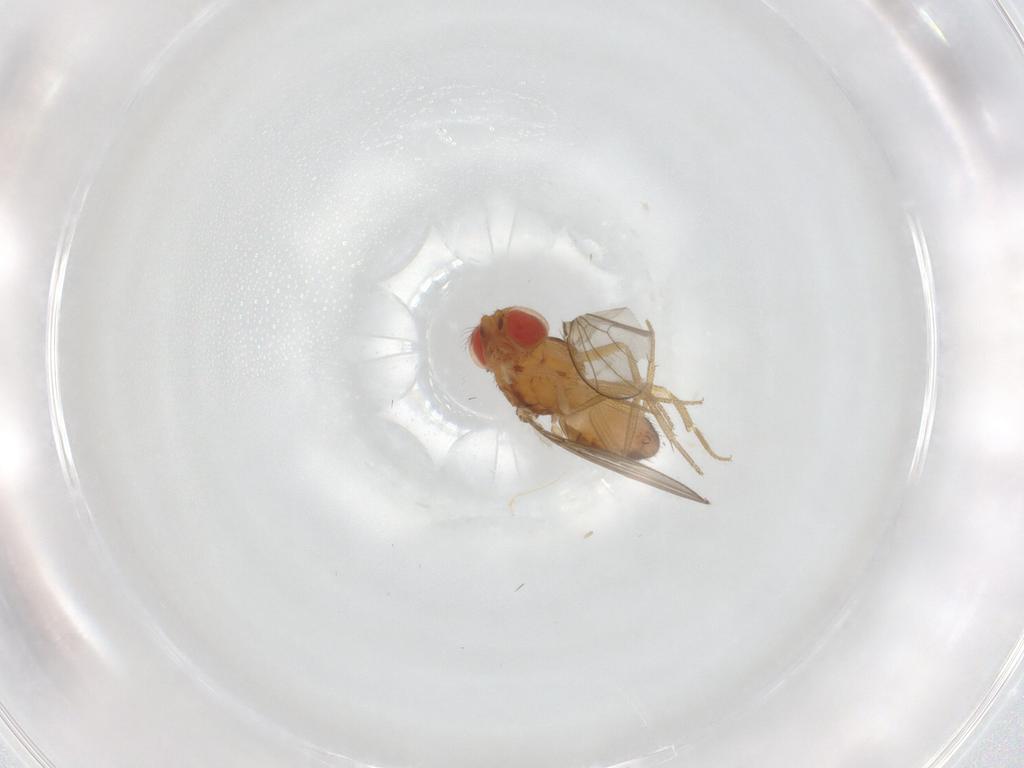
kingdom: Animalia
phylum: Arthropoda
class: Insecta
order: Diptera
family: Drosophilidae
